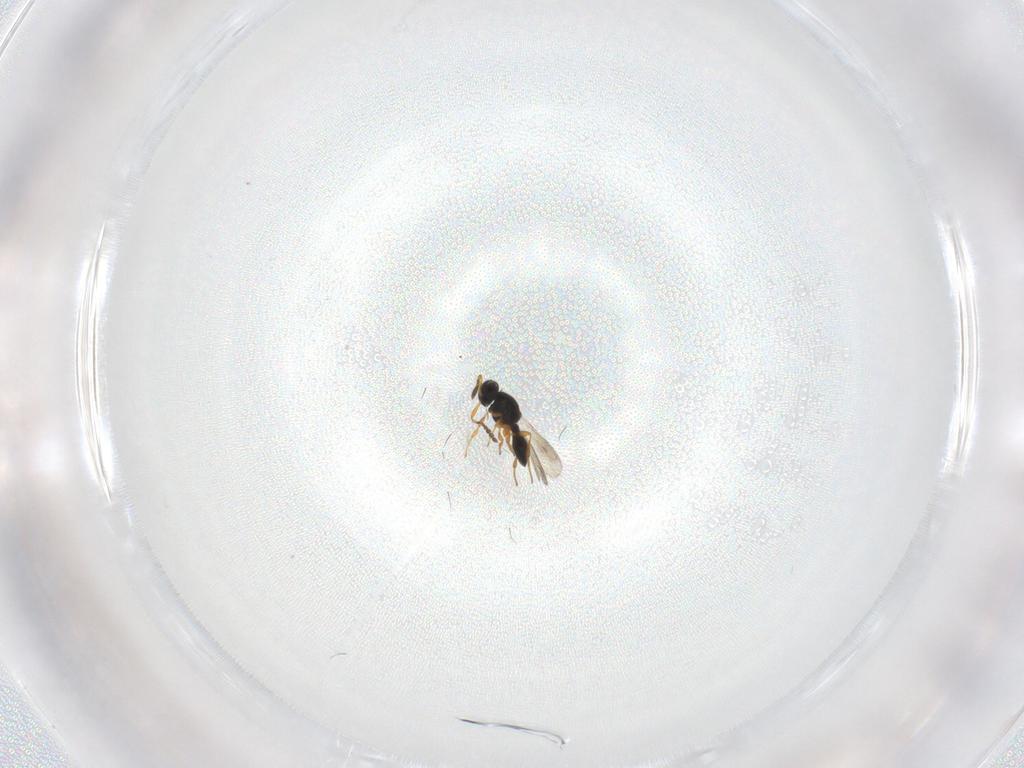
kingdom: Animalia
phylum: Arthropoda
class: Insecta
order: Hymenoptera
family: Platygastridae
